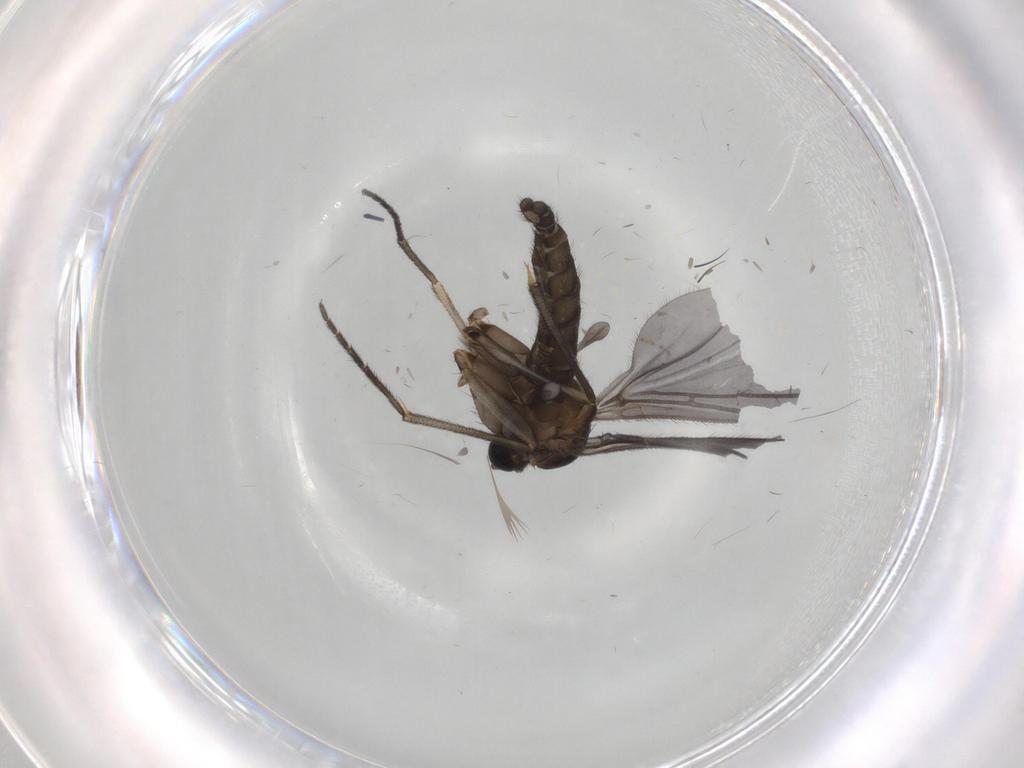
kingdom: Animalia
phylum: Arthropoda
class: Insecta
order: Diptera
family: Sciaridae
